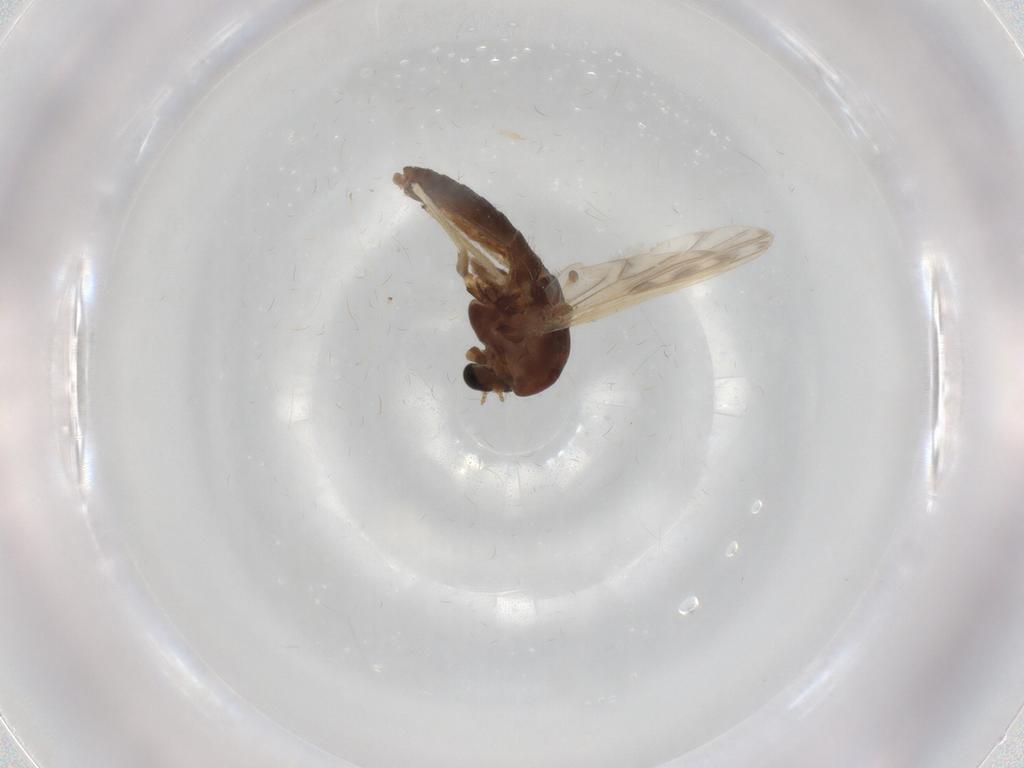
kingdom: Animalia
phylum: Arthropoda
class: Insecta
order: Diptera
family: Chironomidae
